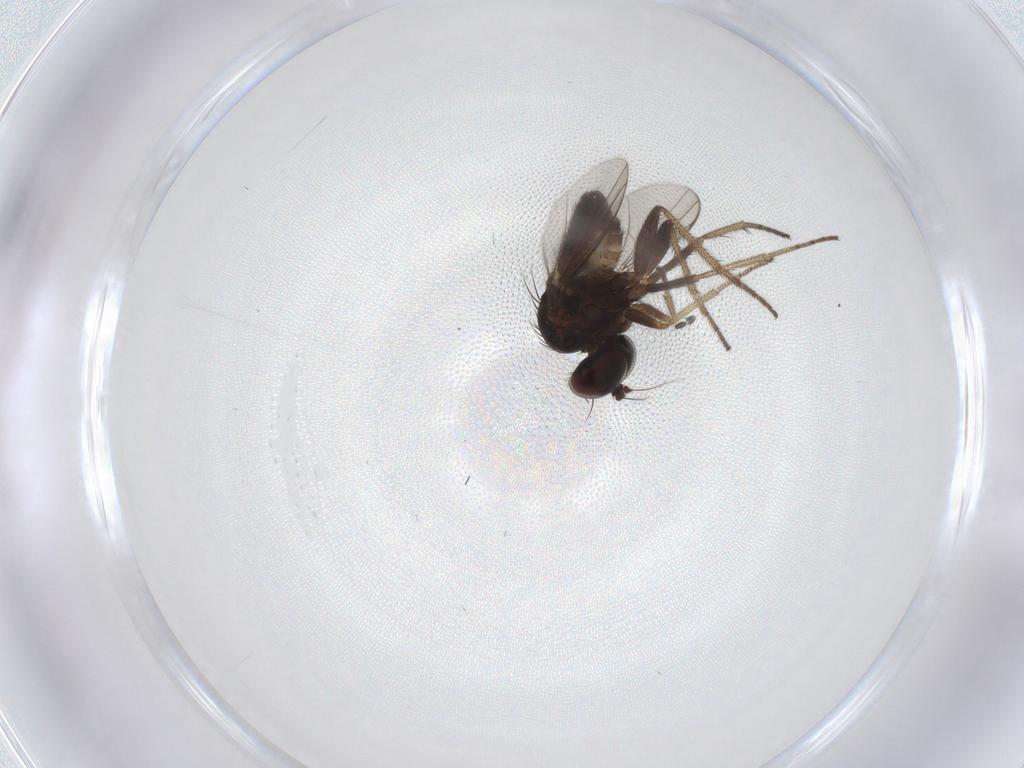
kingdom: Animalia
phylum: Arthropoda
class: Insecta
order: Diptera
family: Limoniidae
